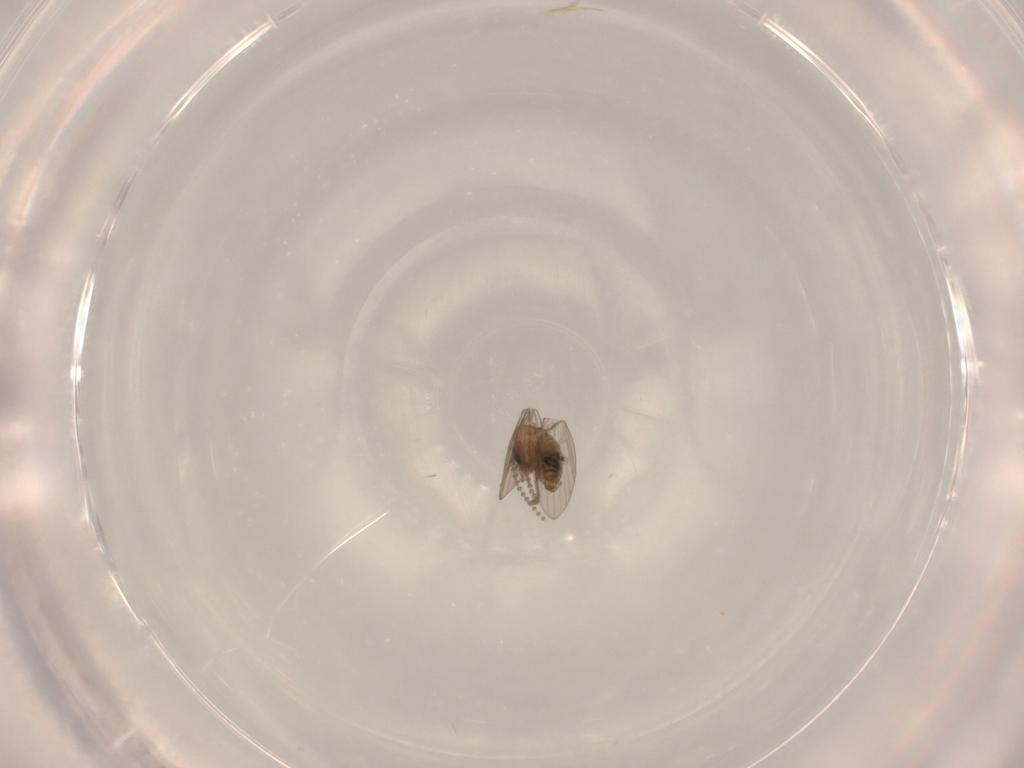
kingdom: Animalia
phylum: Arthropoda
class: Insecta
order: Diptera
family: Psychodidae
